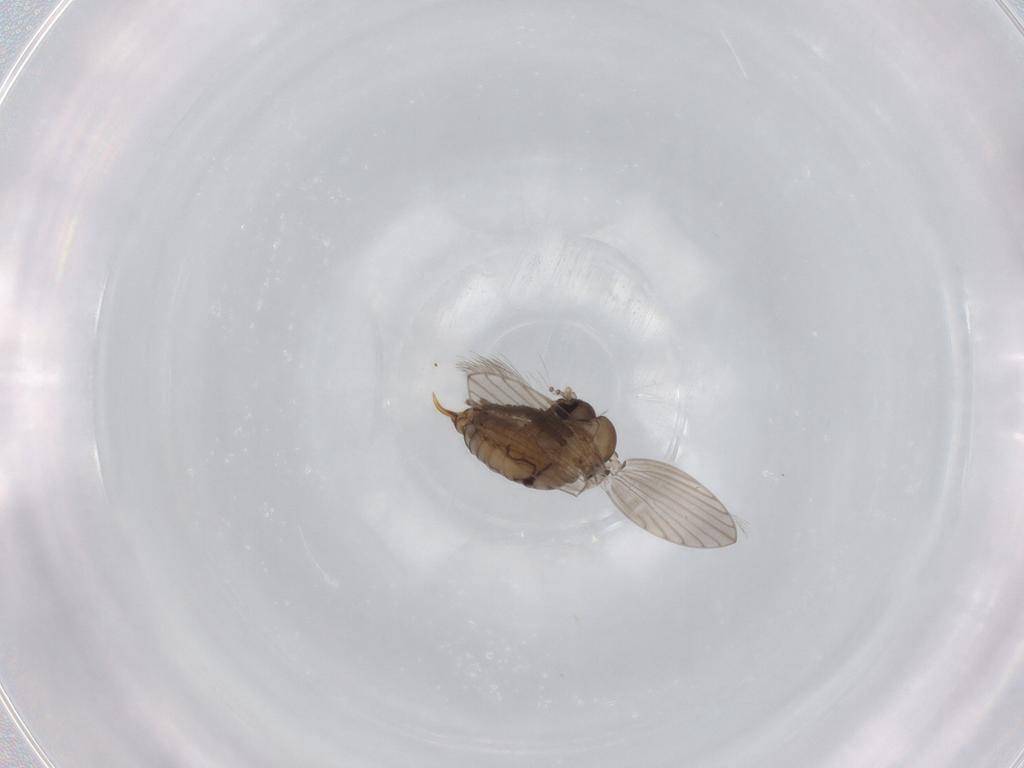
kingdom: Animalia
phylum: Arthropoda
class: Insecta
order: Diptera
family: Psychodidae
